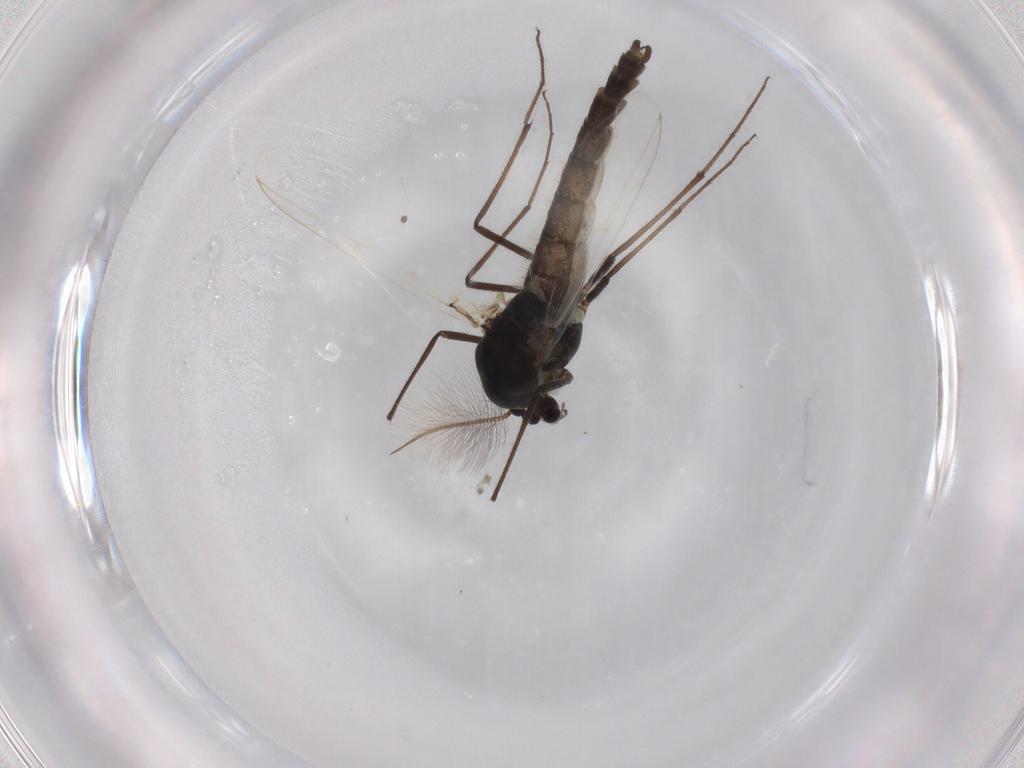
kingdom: Animalia
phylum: Arthropoda
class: Insecta
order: Diptera
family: Chironomidae
